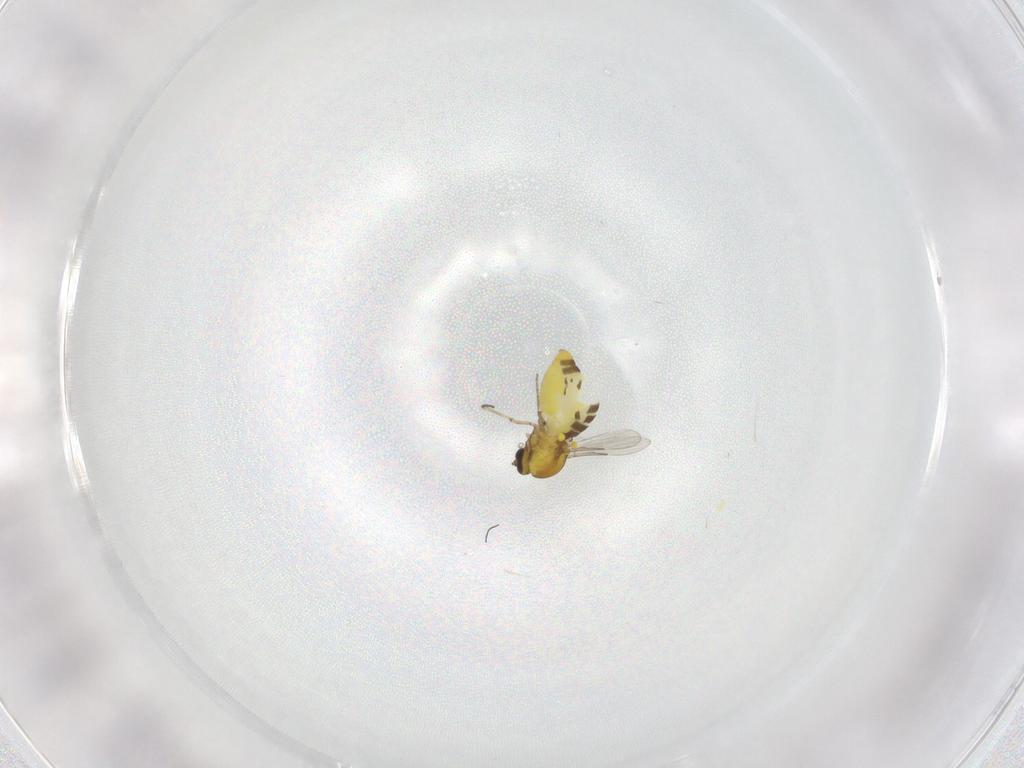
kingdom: Animalia
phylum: Arthropoda
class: Insecta
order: Diptera
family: Ceratopogonidae
